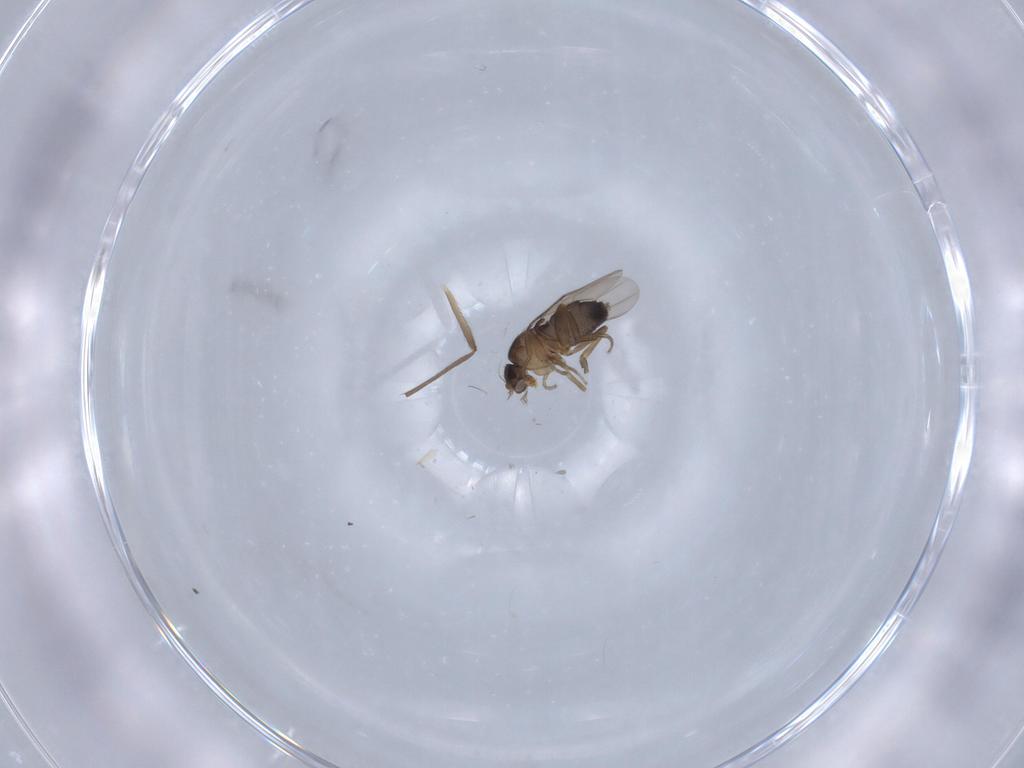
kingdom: Animalia
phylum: Arthropoda
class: Insecta
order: Diptera
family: Phoridae
